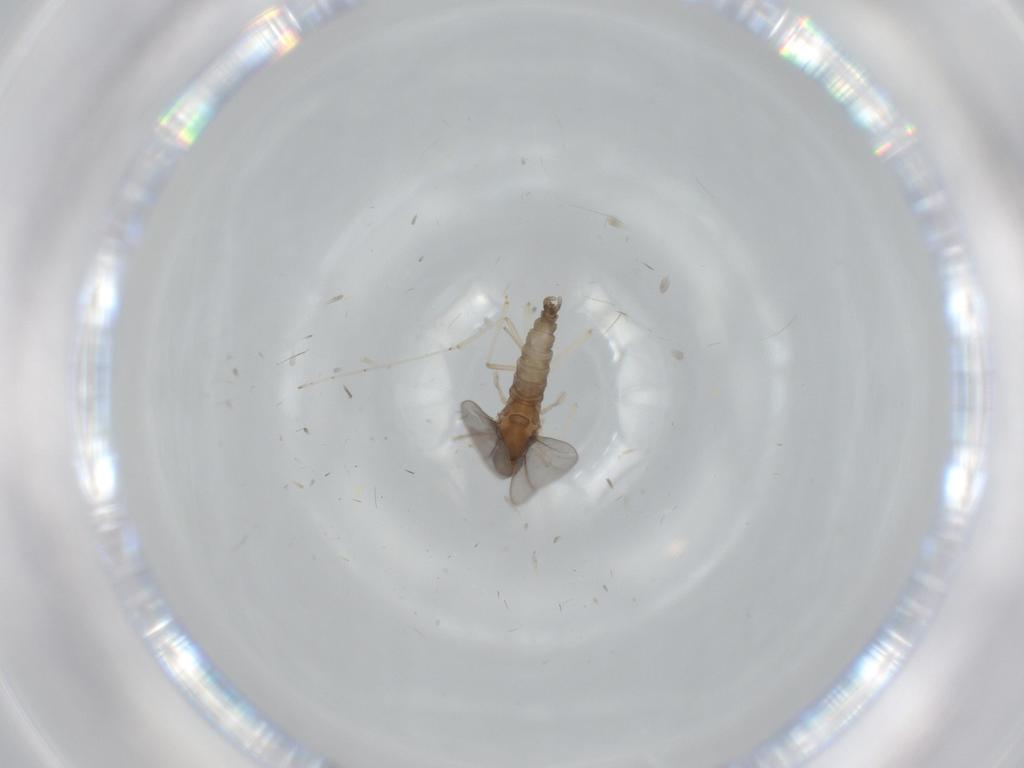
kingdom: Animalia
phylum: Arthropoda
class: Insecta
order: Diptera
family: Cecidomyiidae
